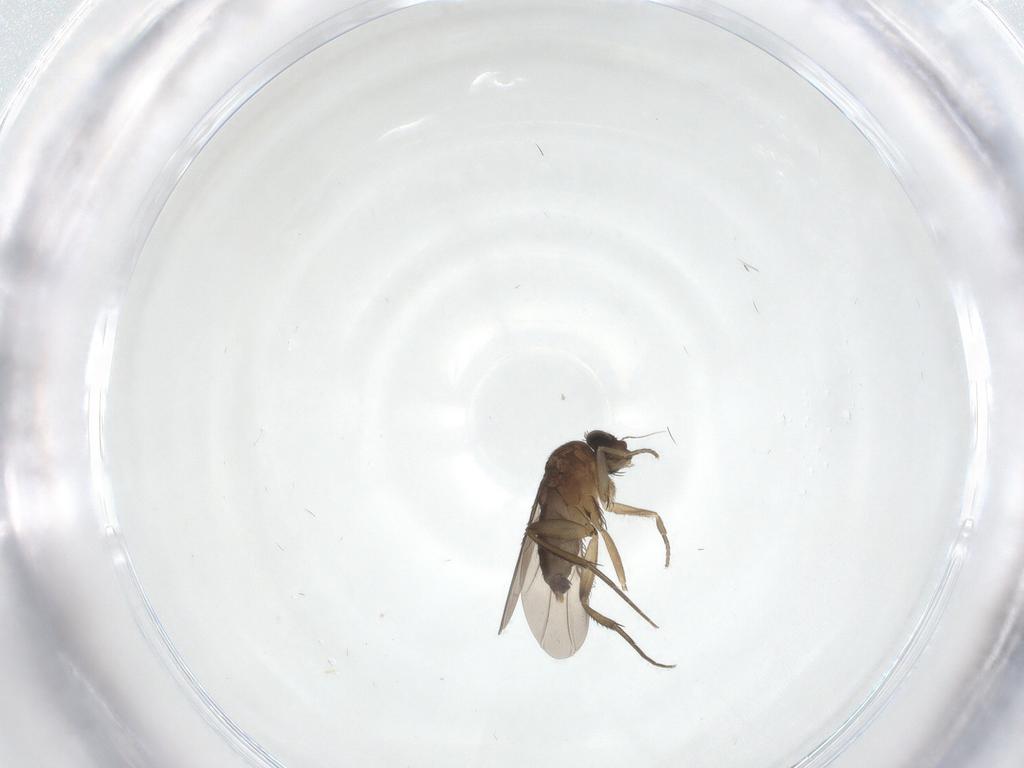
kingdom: Animalia
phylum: Arthropoda
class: Insecta
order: Diptera
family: Phoridae
